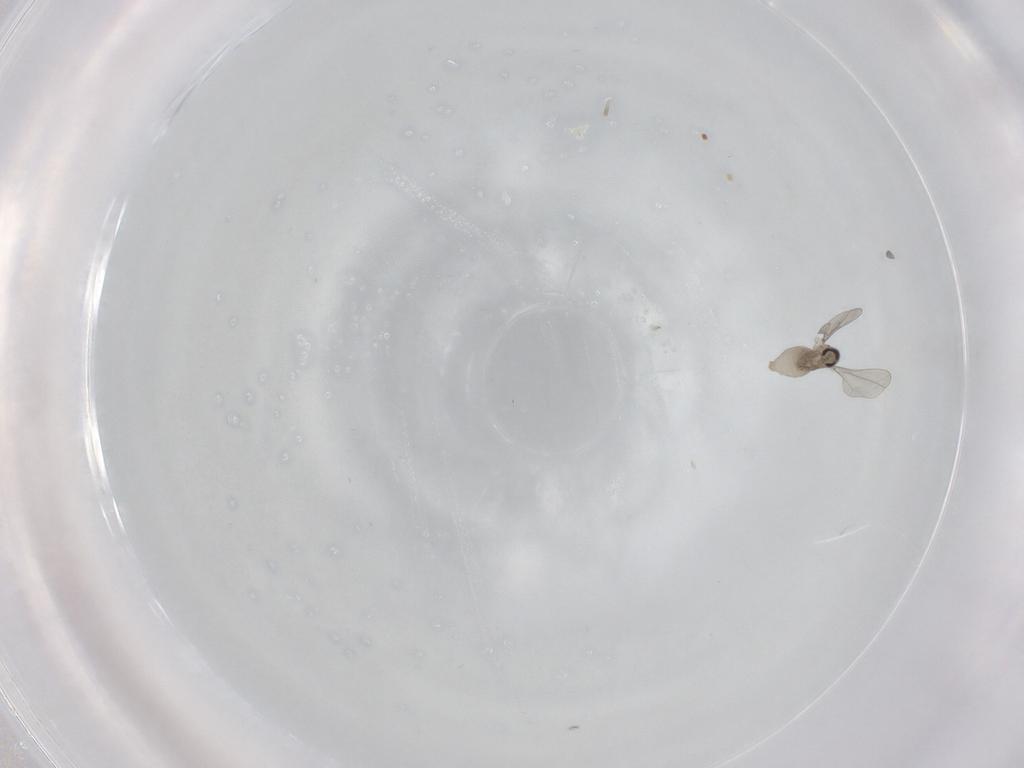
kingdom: Animalia
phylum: Arthropoda
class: Insecta
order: Diptera
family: Cecidomyiidae
